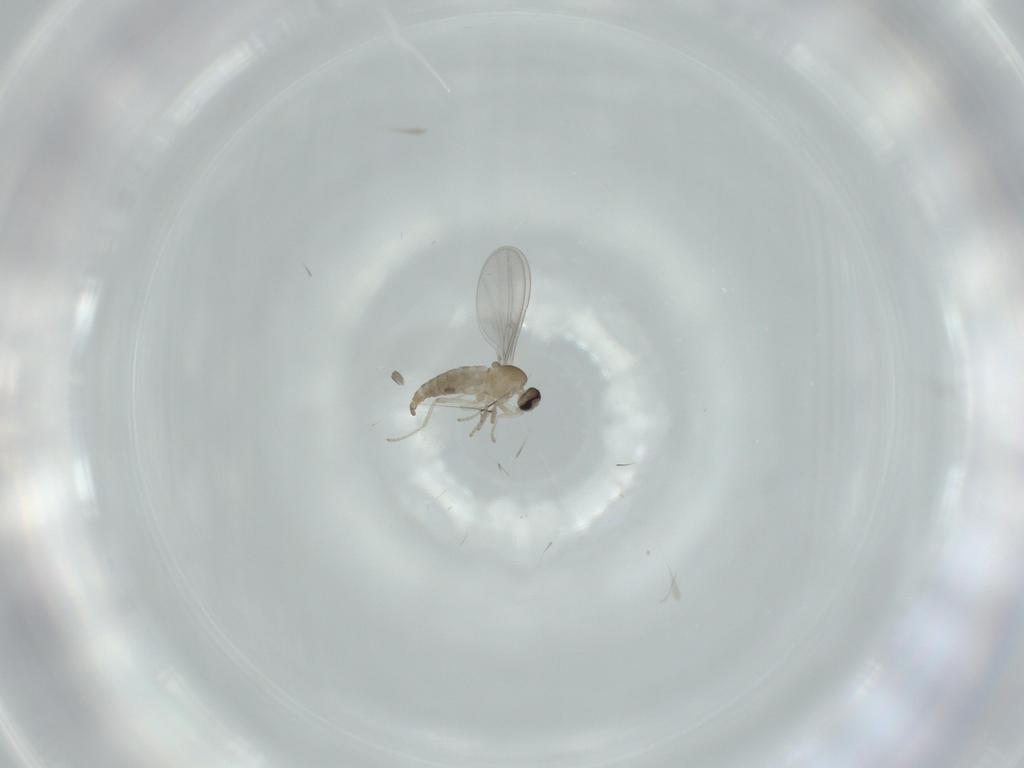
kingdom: Animalia
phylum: Arthropoda
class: Insecta
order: Diptera
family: Cecidomyiidae
